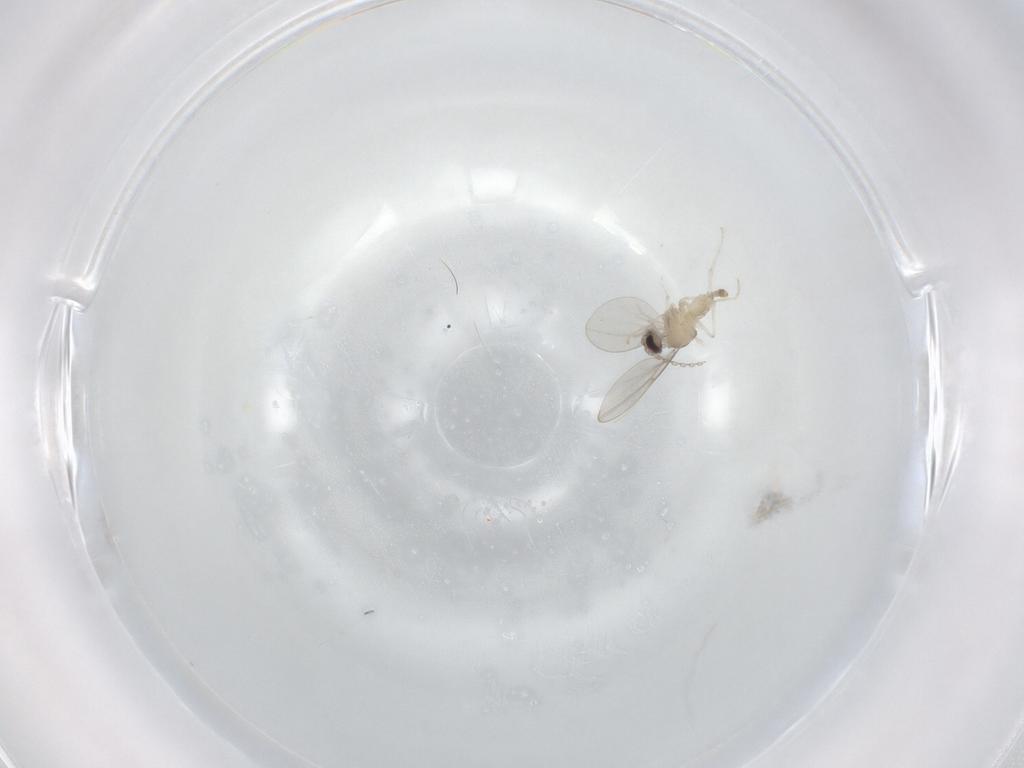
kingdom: Animalia
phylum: Arthropoda
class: Insecta
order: Diptera
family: Cecidomyiidae
